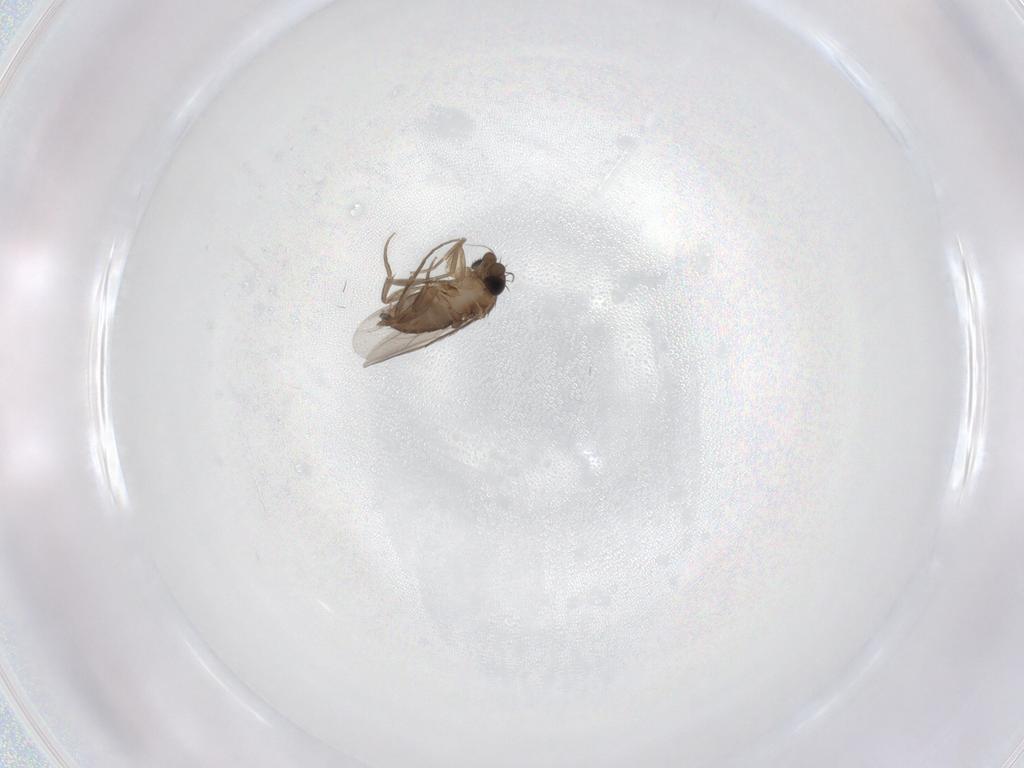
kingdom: Animalia
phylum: Arthropoda
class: Insecta
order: Diptera
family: Phoridae
